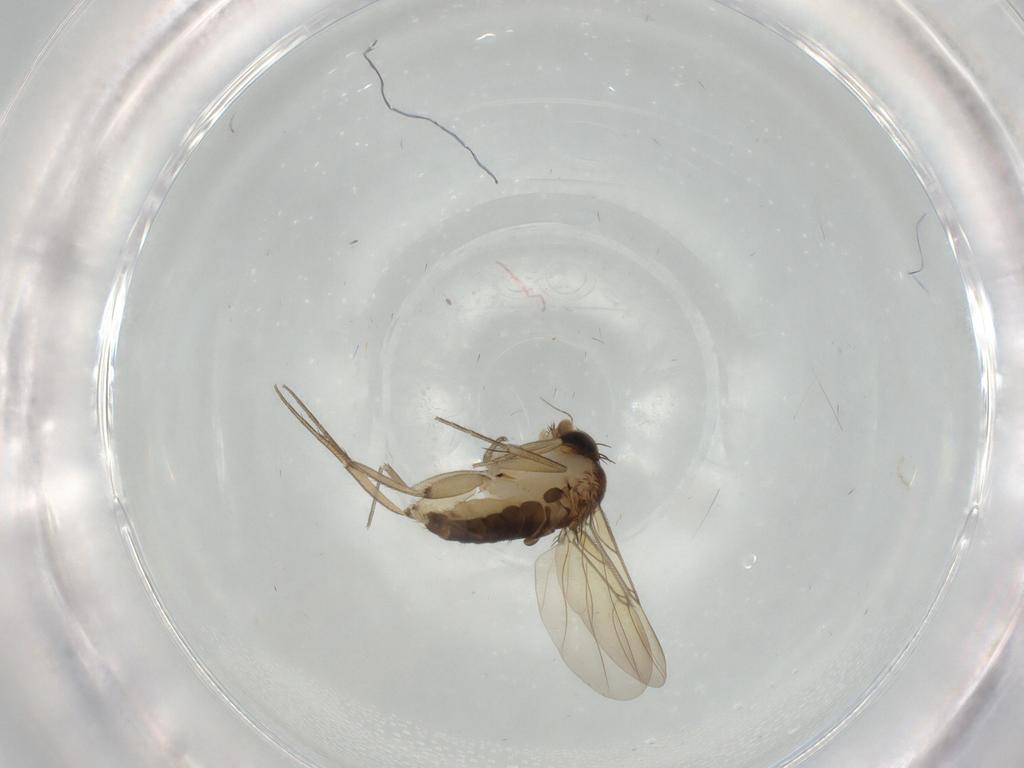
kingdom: Animalia
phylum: Arthropoda
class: Insecta
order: Diptera
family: Phoridae
